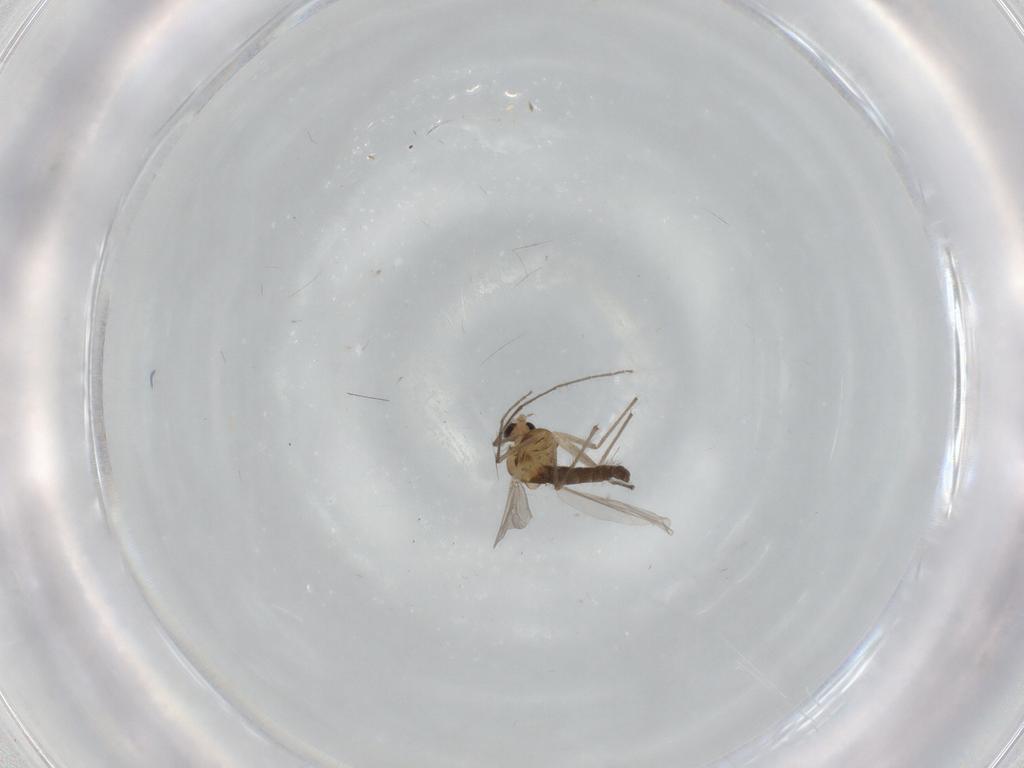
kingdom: Animalia
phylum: Arthropoda
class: Insecta
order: Diptera
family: Chironomidae
